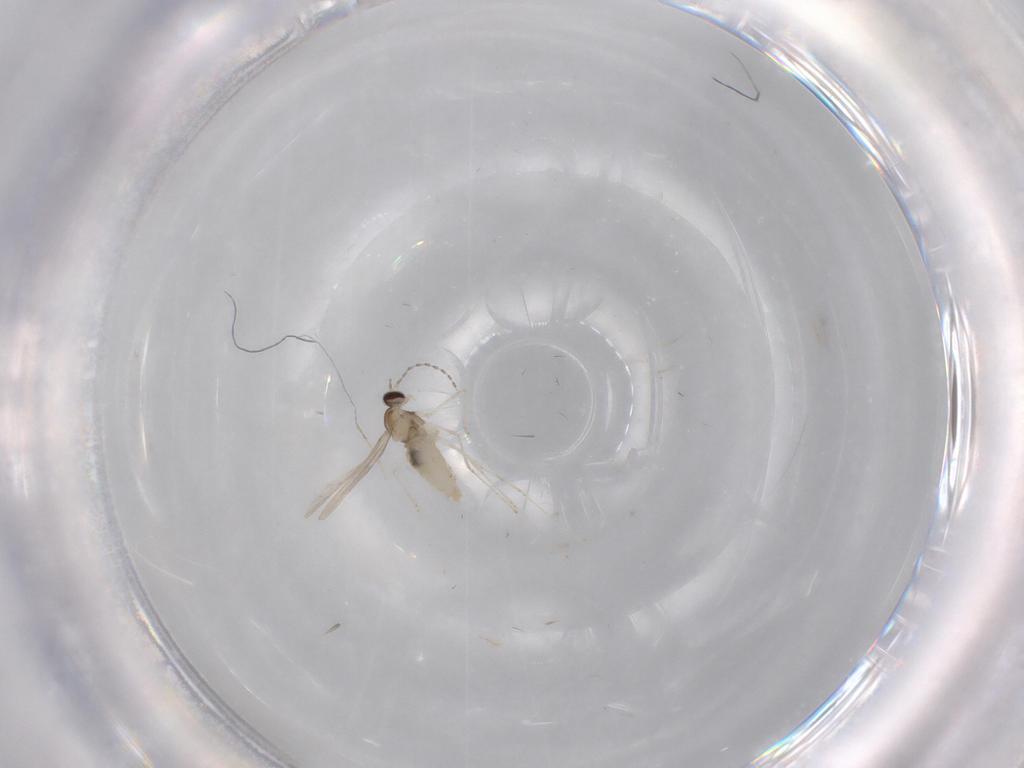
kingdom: Animalia
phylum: Arthropoda
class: Insecta
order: Diptera
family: Cecidomyiidae
